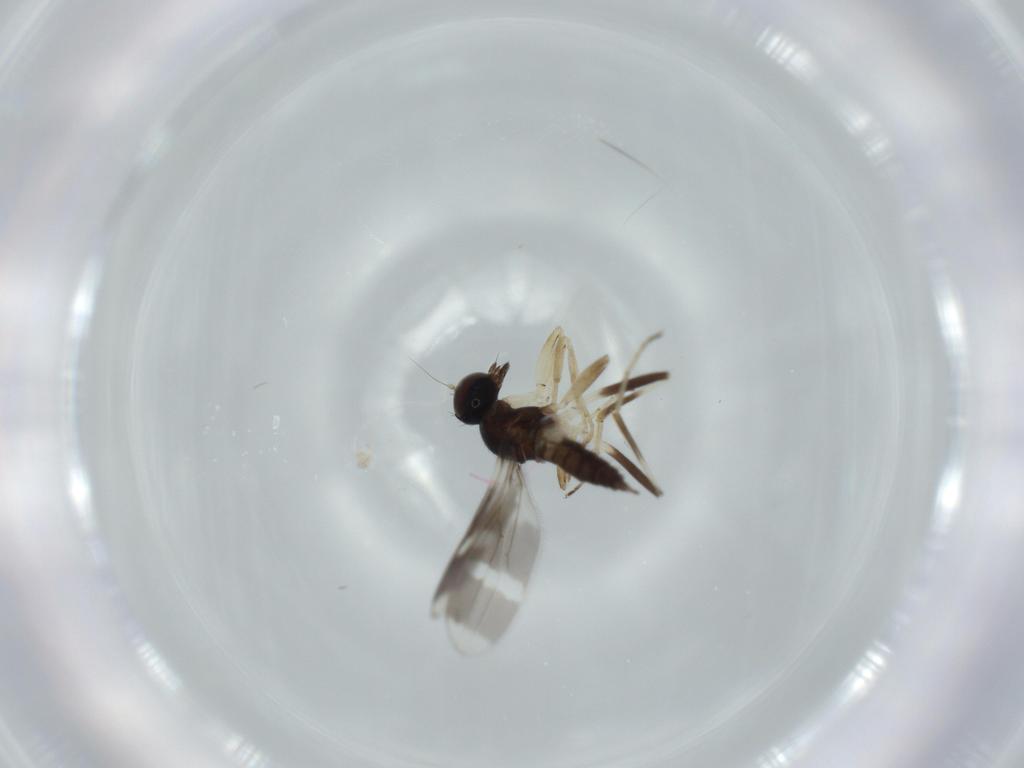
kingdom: Animalia
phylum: Arthropoda
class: Insecta
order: Diptera
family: Hybotidae
